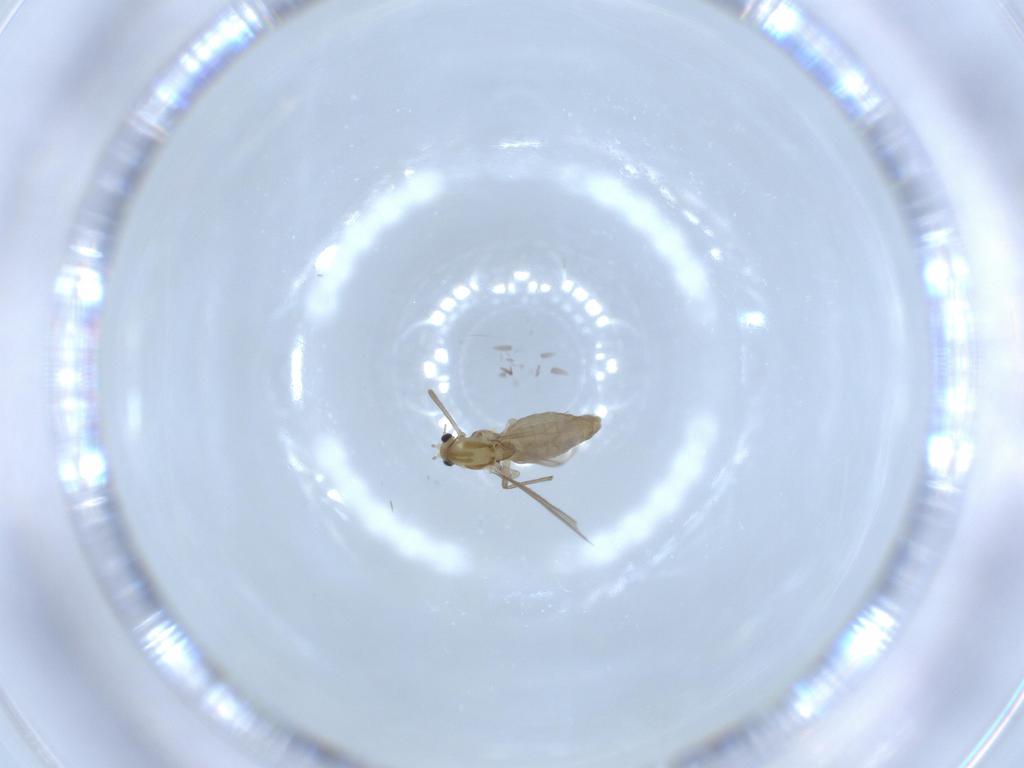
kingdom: Animalia
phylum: Arthropoda
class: Insecta
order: Diptera
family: Chironomidae
